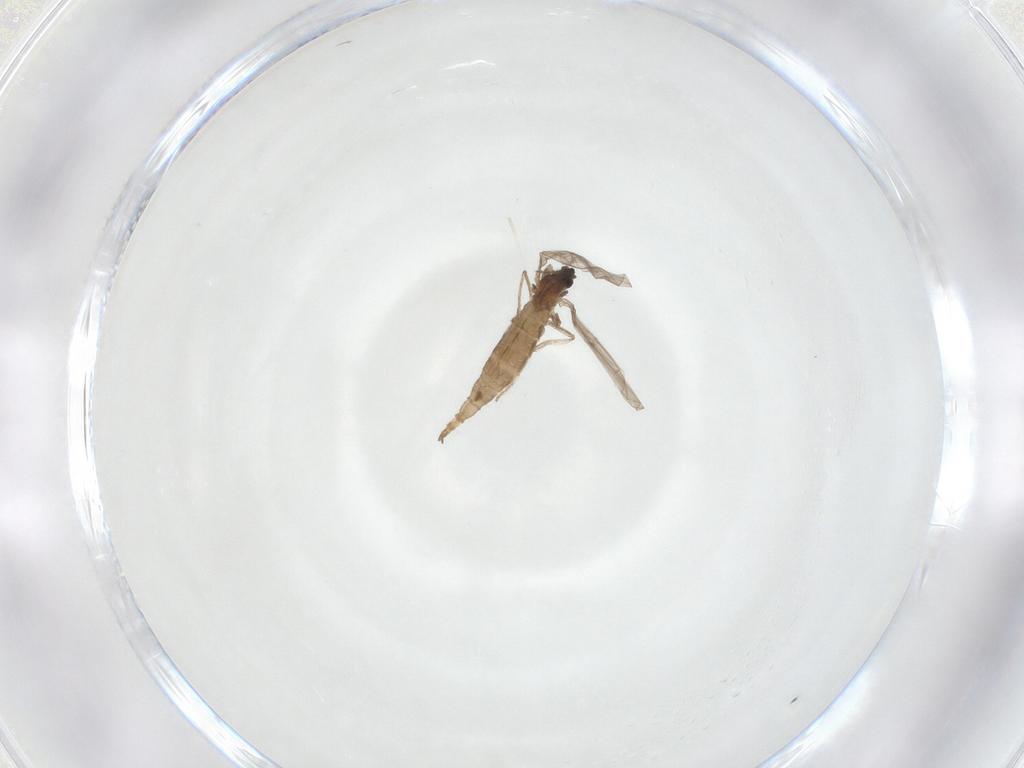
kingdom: Animalia
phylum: Arthropoda
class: Insecta
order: Diptera
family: Cecidomyiidae
